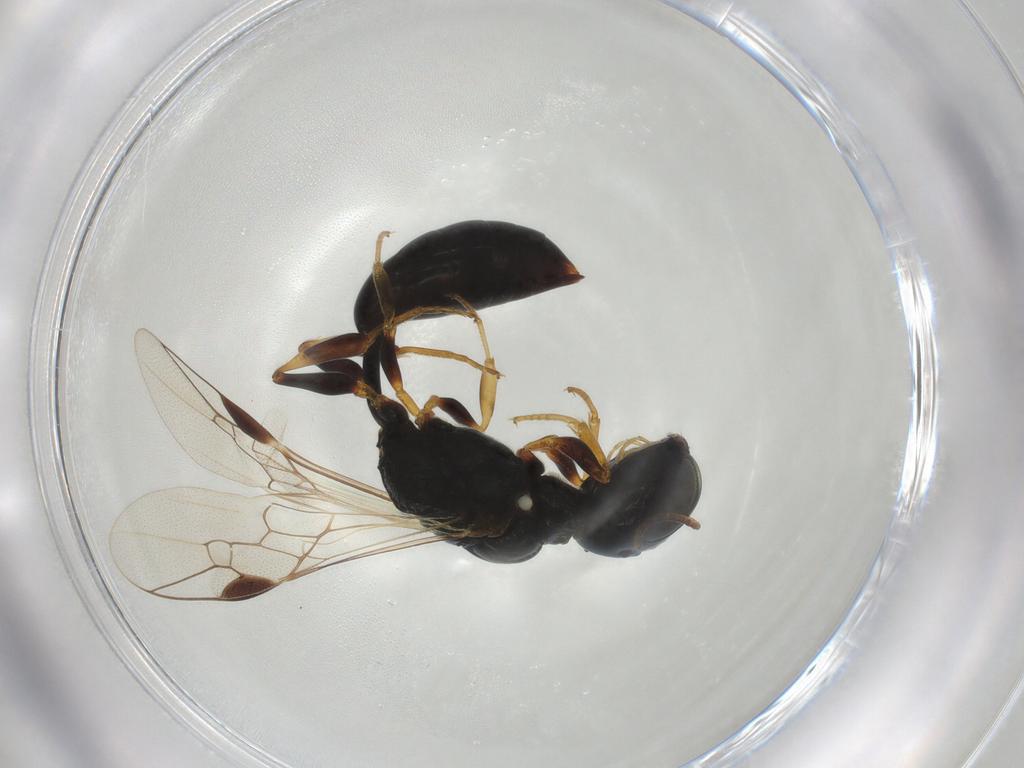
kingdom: Animalia
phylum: Arthropoda
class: Insecta
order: Hymenoptera
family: Pemphredonidae
